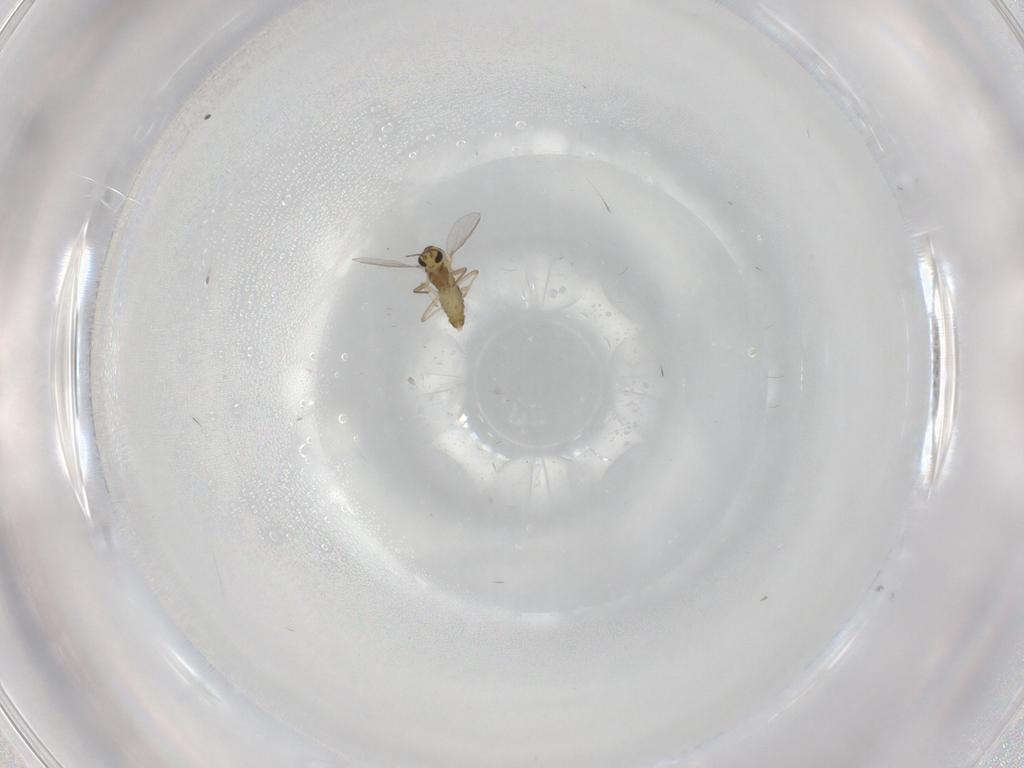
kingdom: Animalia
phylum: Arthropoda
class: Insecta
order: Diptera
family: Chironomidae
